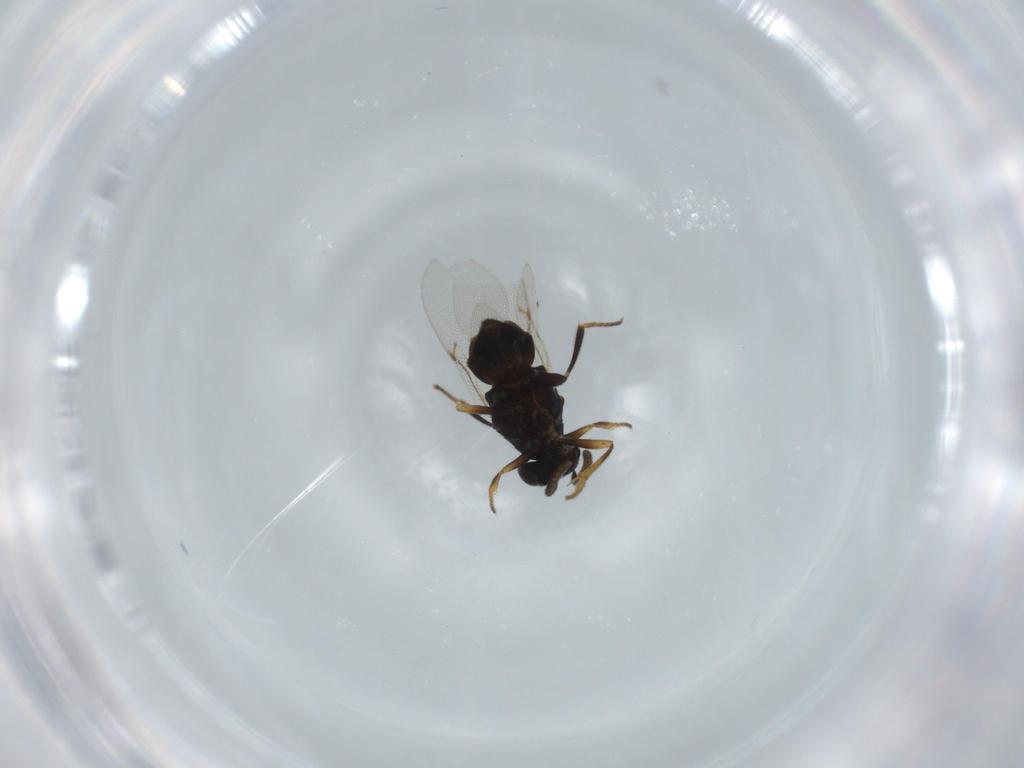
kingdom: Animalia
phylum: Arthropoda
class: Insecta
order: Hymenoptera
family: Encyrtidae
